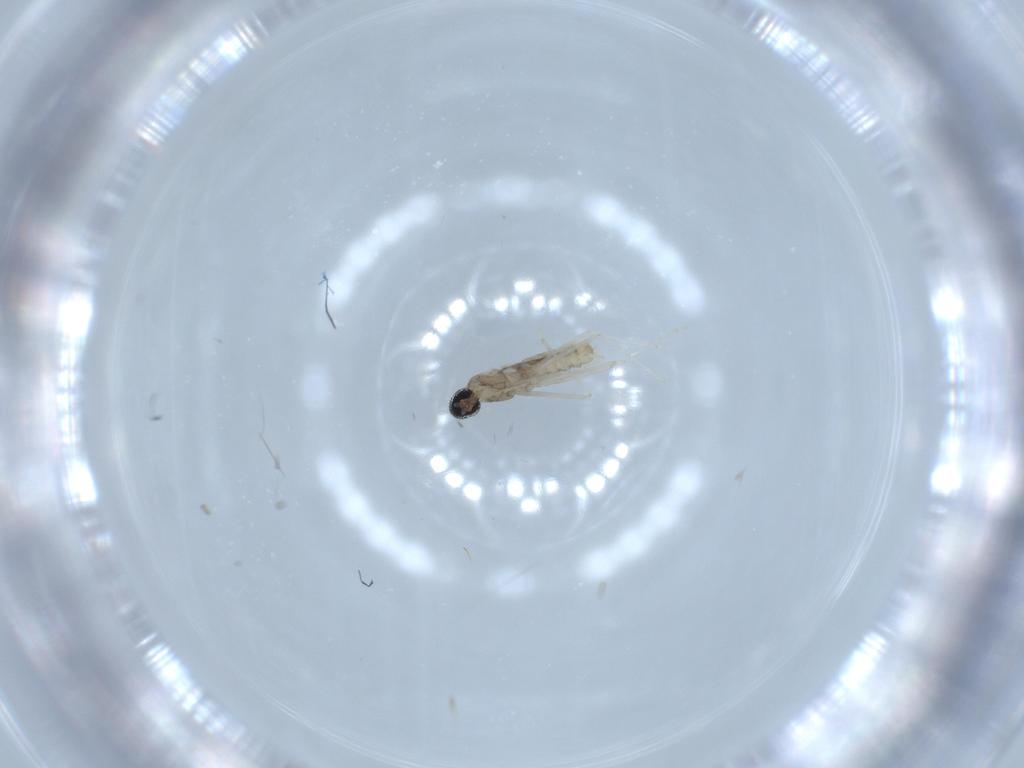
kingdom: Animalia
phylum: Arthropoda
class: Insecta
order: Diptera
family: Cecidomyiidae
